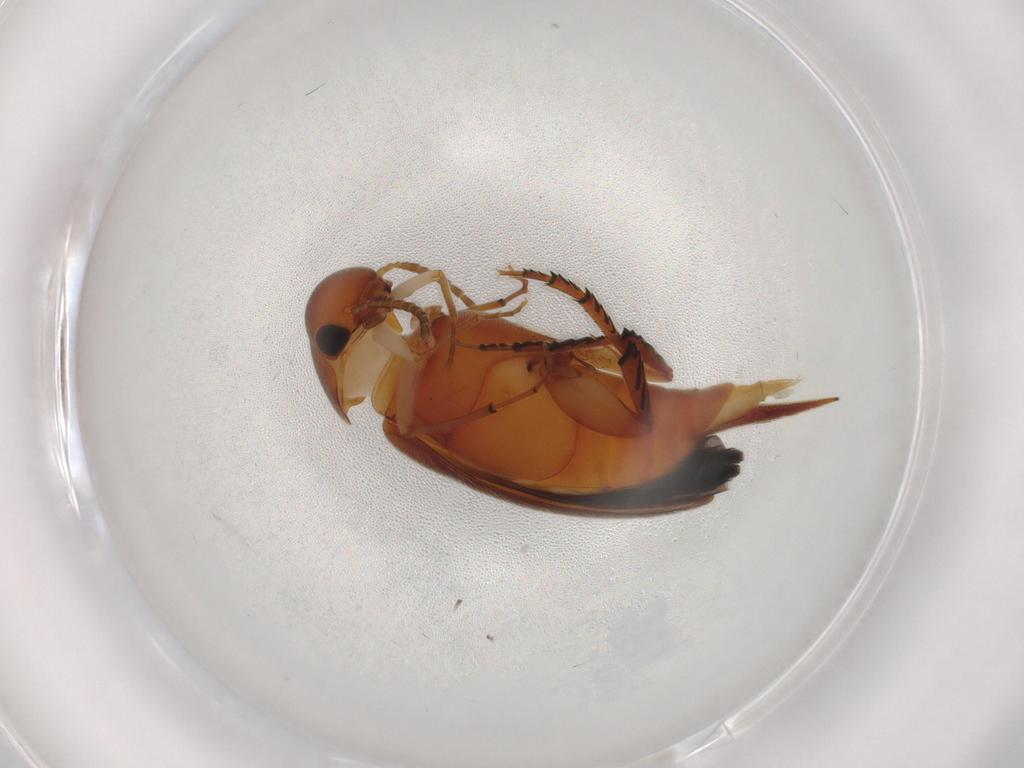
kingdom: Animalia
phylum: Arthropoda
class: Insecta
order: Coleoptera
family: Mordellidae
